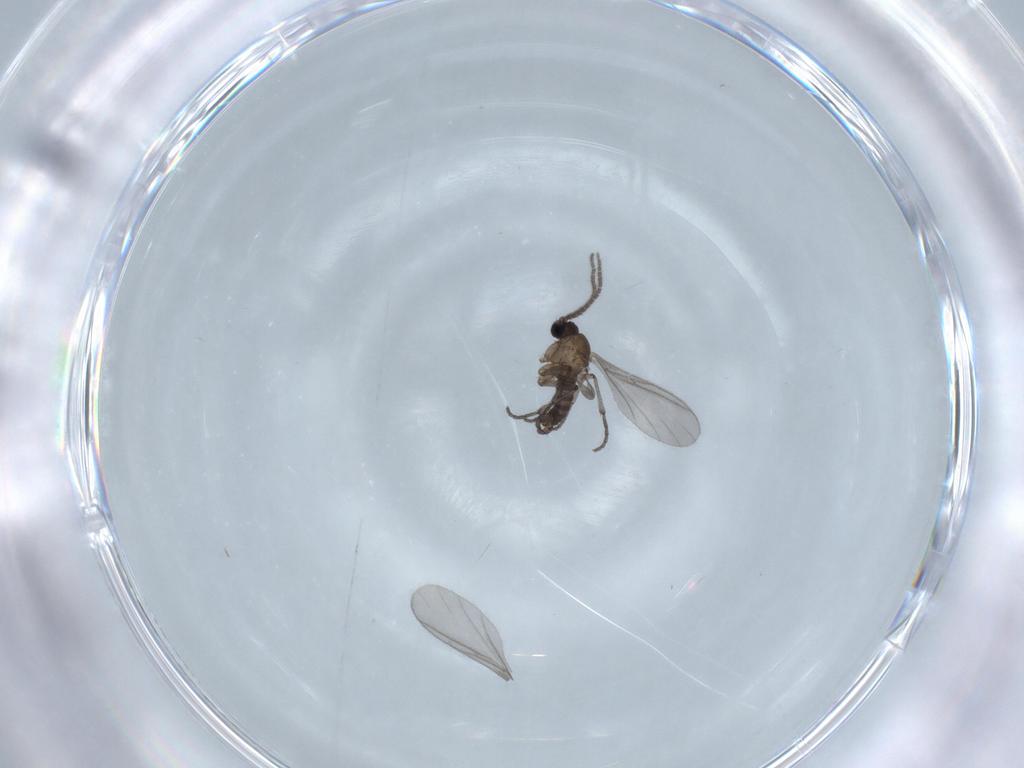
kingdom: Animalia
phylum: Arthropoda
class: Insecta
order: Diptera
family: Sciaridae
